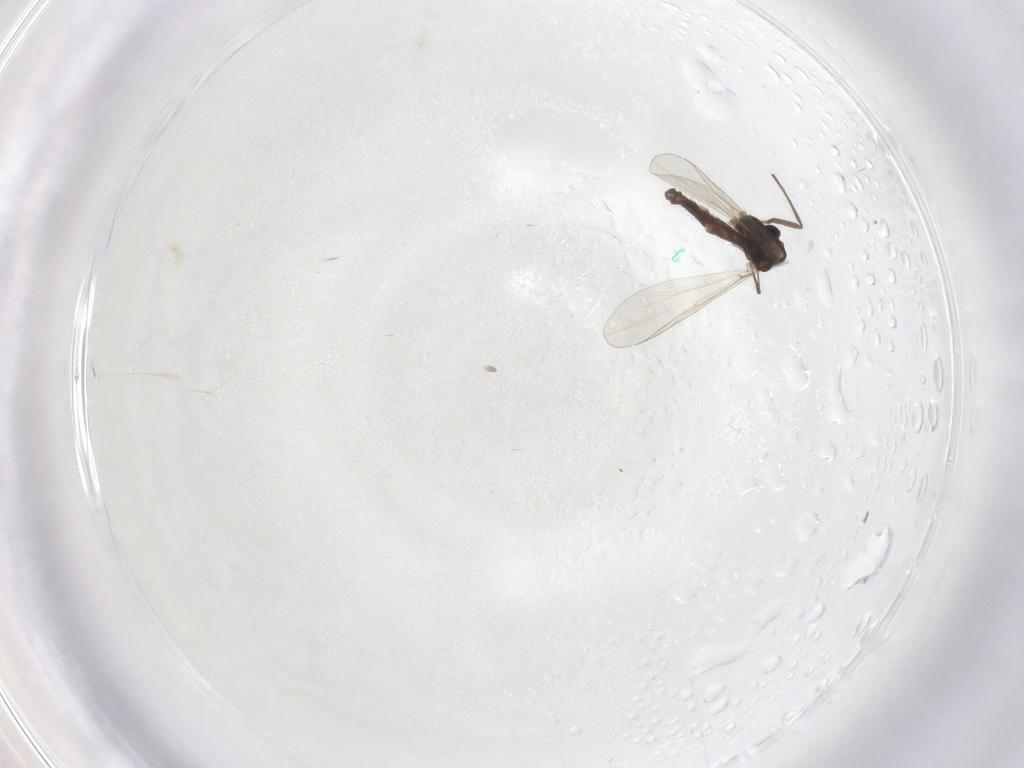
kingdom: Animalia
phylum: Arthropoda
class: Insecta
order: Diptera
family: Chironomidae
